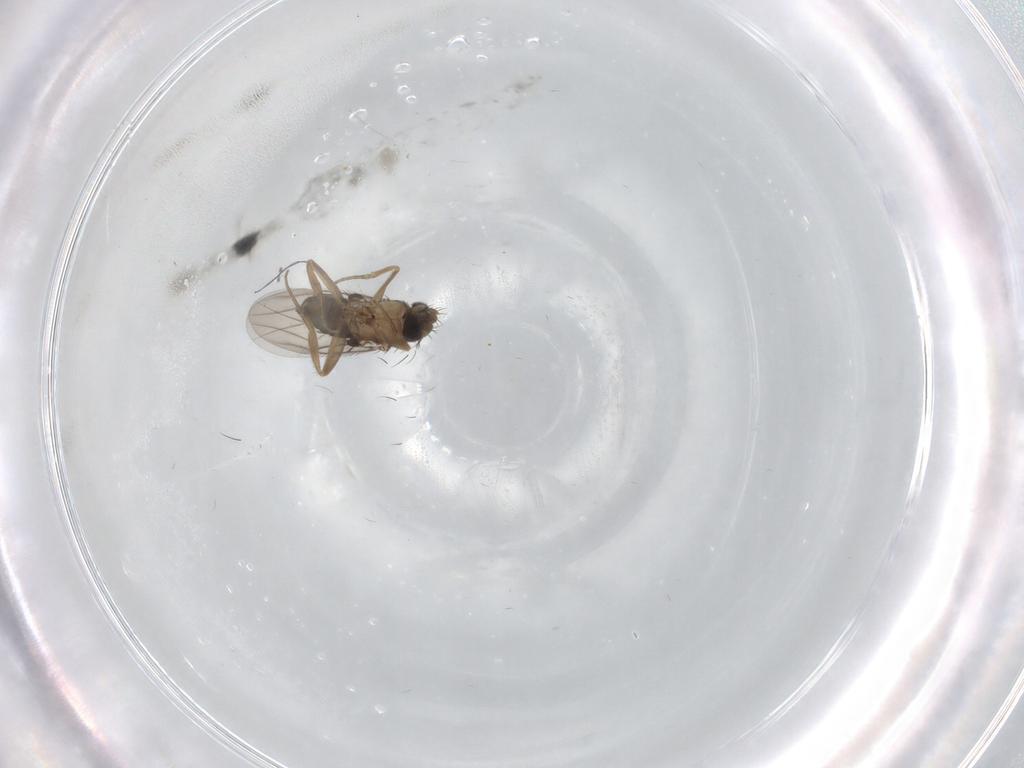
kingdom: Animalia
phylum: Arthropoda
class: Insecta
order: Diptera
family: Phoridae
